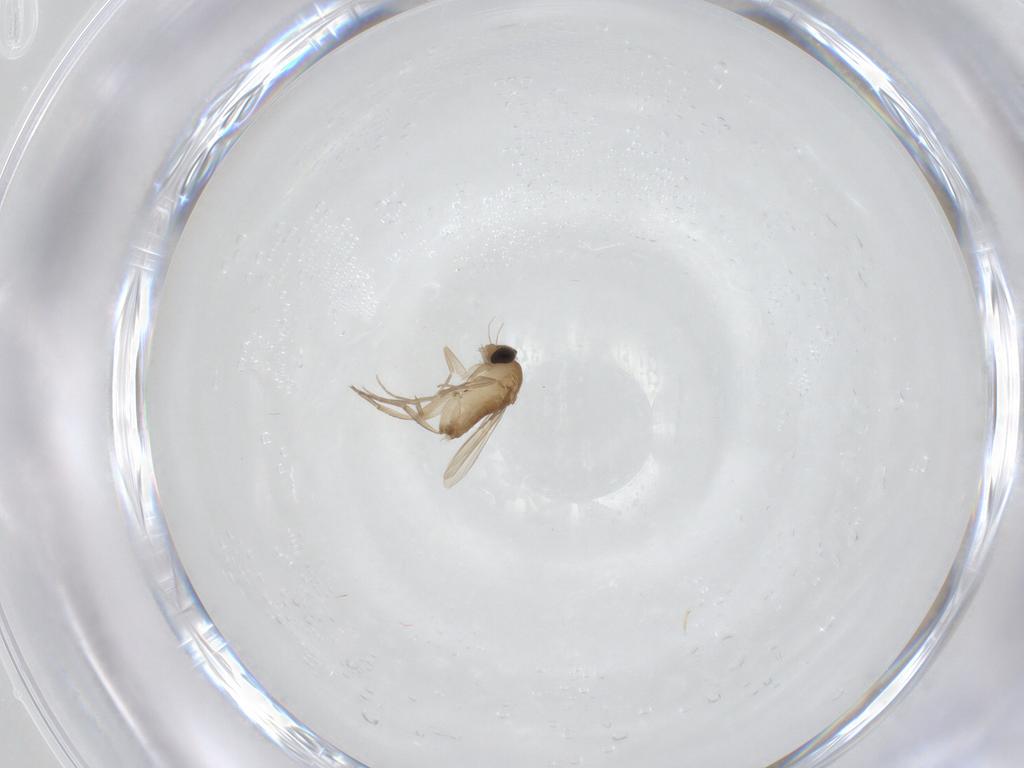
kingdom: Animalia
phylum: Arthropoda
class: Insecta
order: Diptera
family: Phoridae
